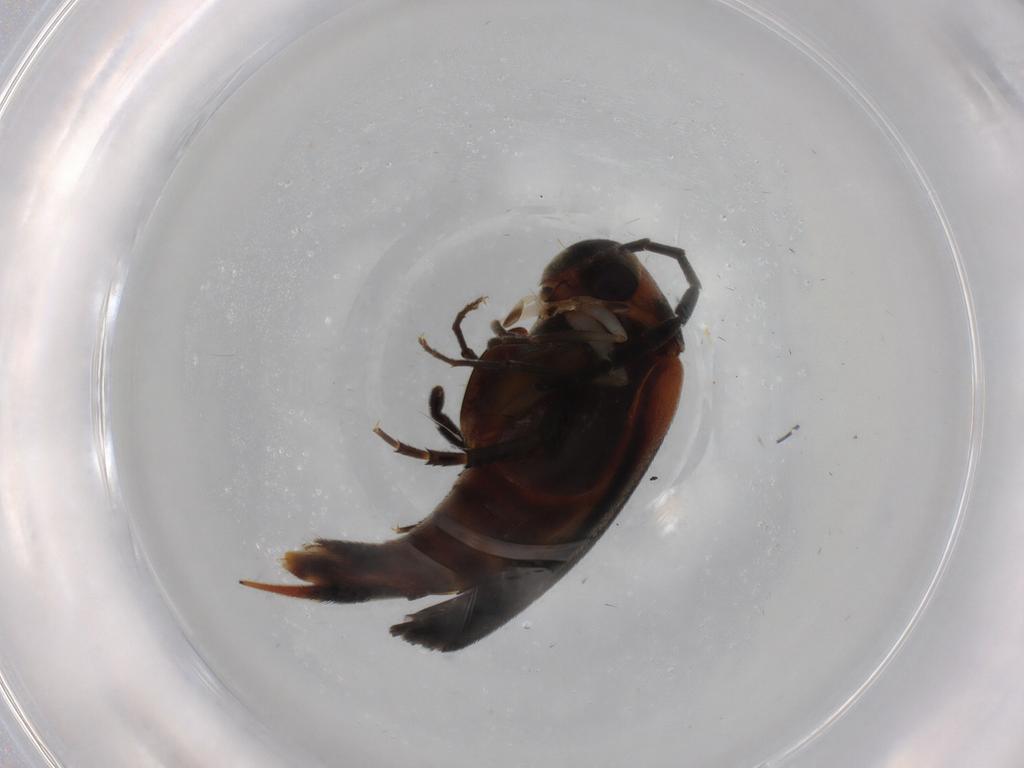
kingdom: Animalia
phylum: Arthropoda
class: Insecta
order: Coleoptera
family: Mordellidae
